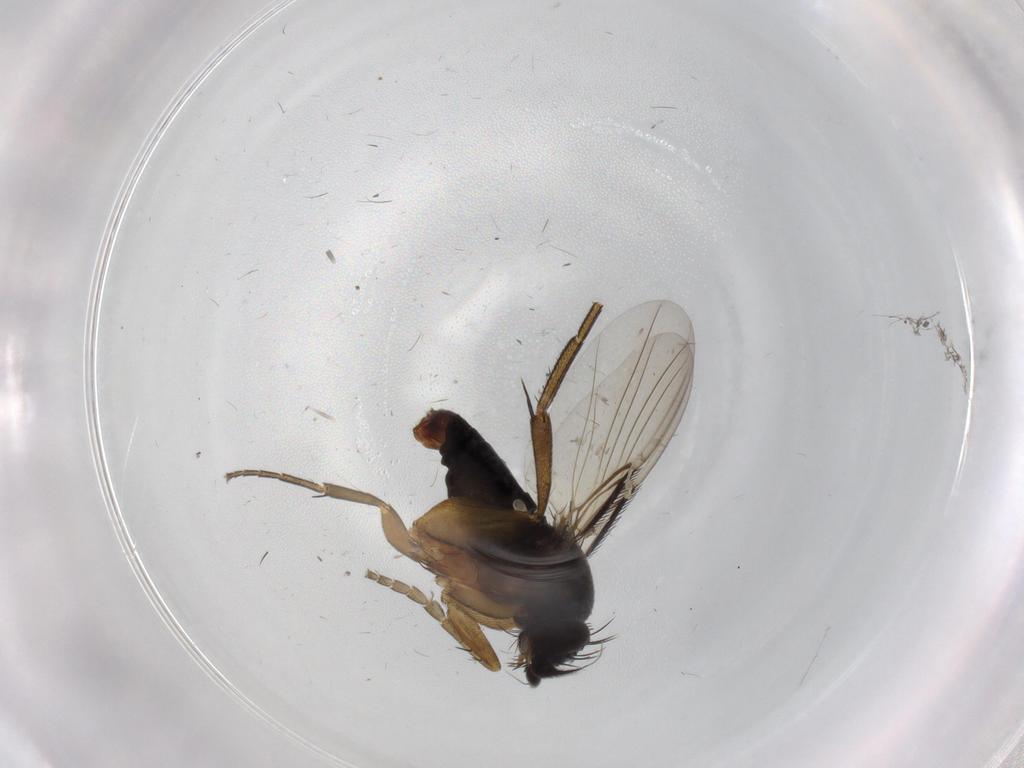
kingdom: Animalia
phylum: Arthropoda
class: Insecta
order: Diptera
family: Phoridae
